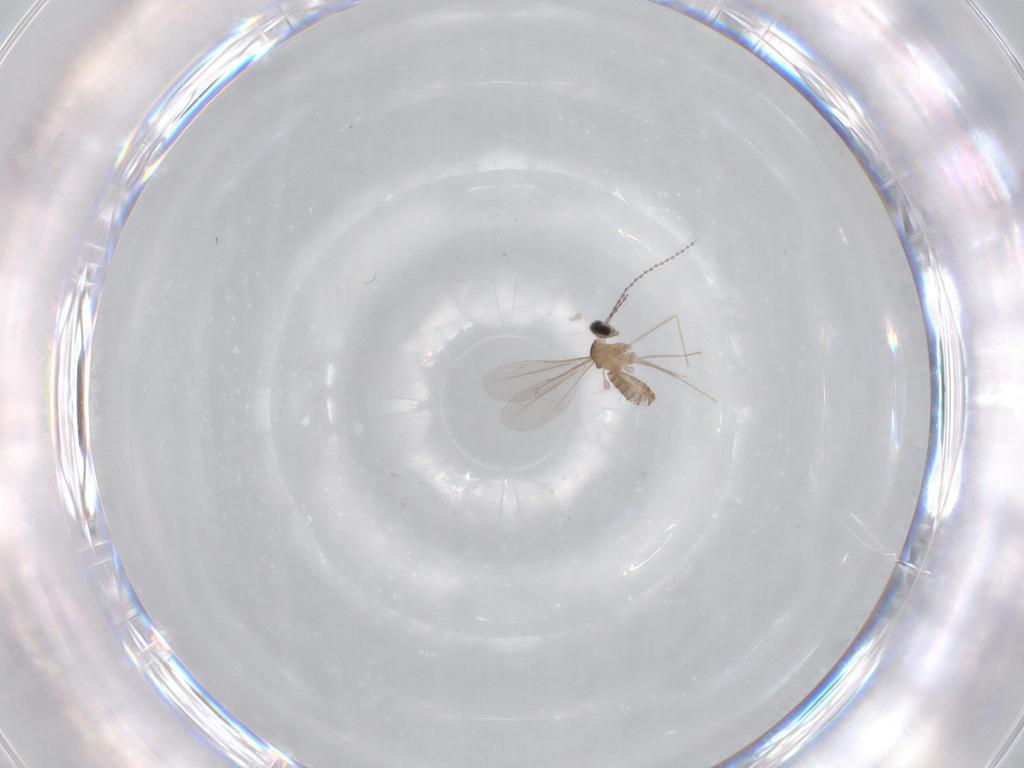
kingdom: Animalia
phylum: Arthropoda
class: Insecta
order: Diptera
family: Cecidomyiidae
